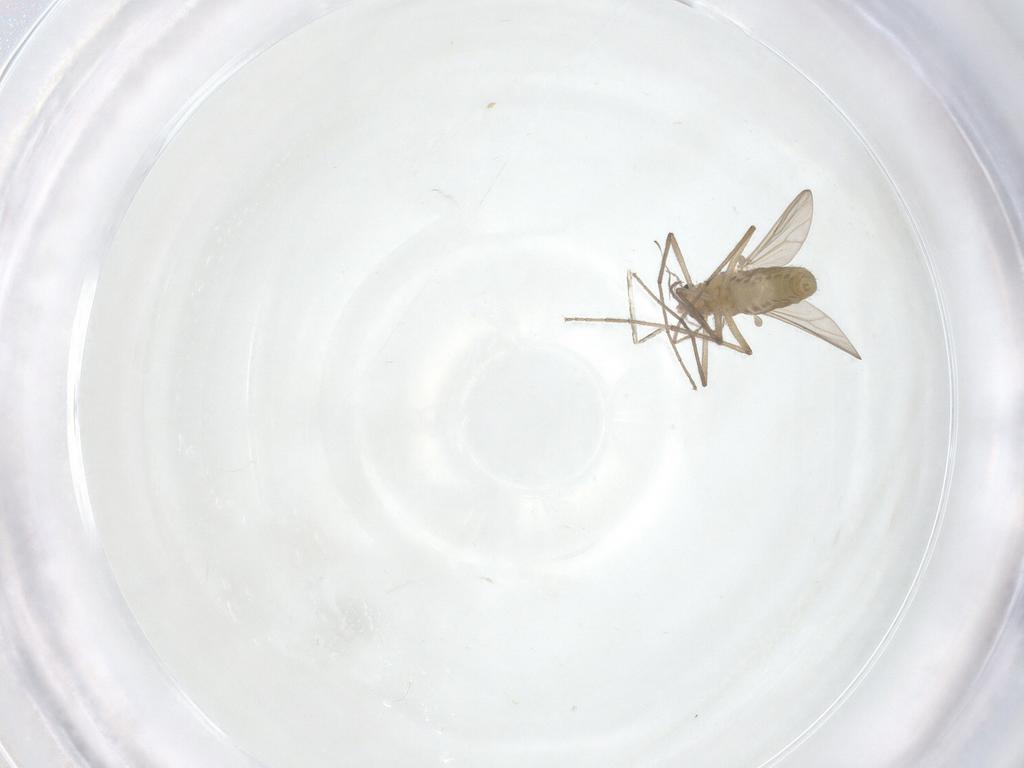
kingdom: Animalia
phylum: Arthropoda
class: Insecta
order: Diptera
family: Chironomidae
